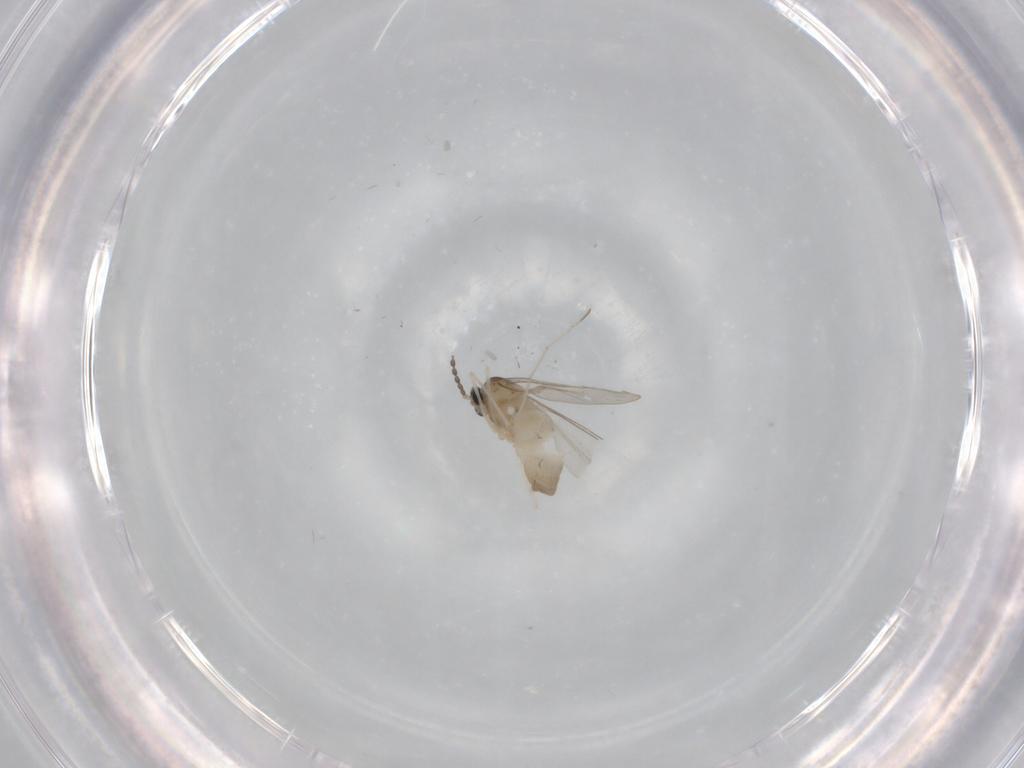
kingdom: Animalia
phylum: Arthropoda
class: Insecta
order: Diptera
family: Cecidomyiidae
